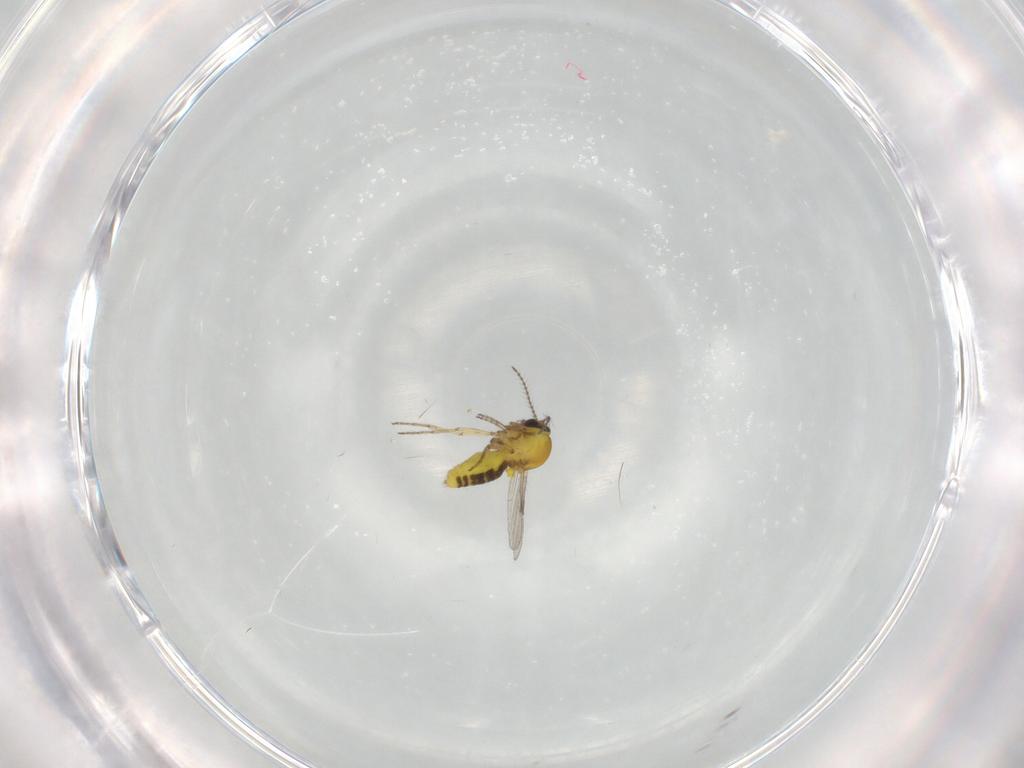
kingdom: Animalia
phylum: Arthropoda
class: Insecta
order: Diptera
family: Ceratopogonidae
